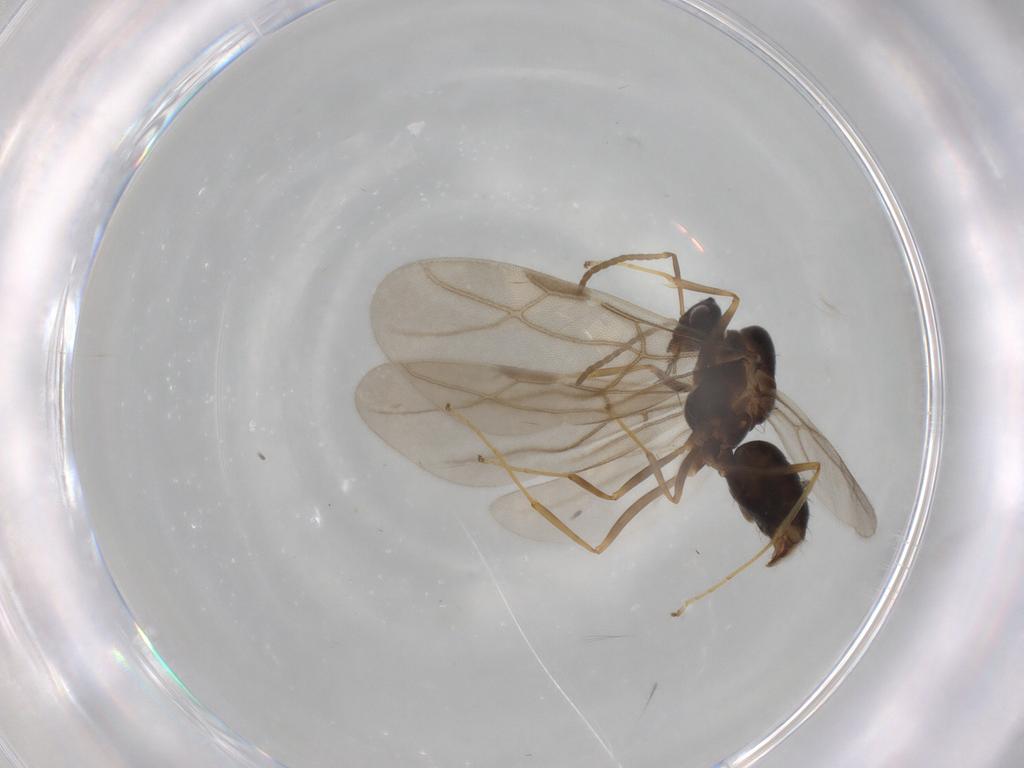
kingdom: Animalia
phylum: Arthropoda
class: Insecta
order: Hymenoptera
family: Formicidae
